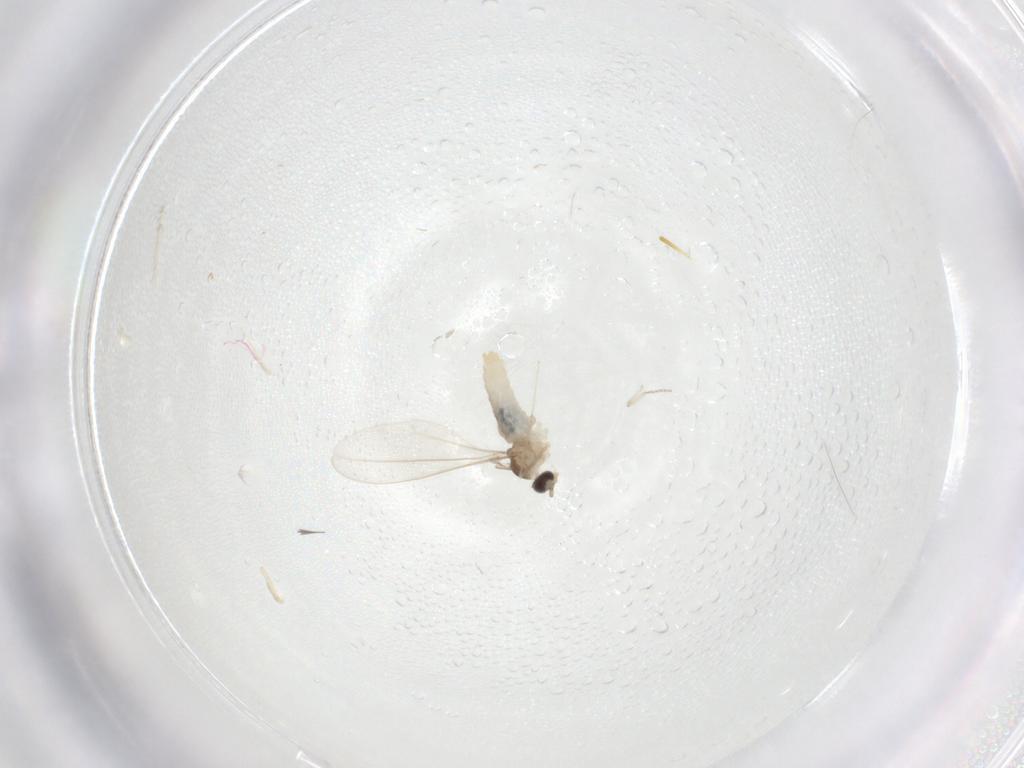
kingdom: Animalia
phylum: Arthropoda
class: Insecta
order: Diptera
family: Cecidomyiidae
